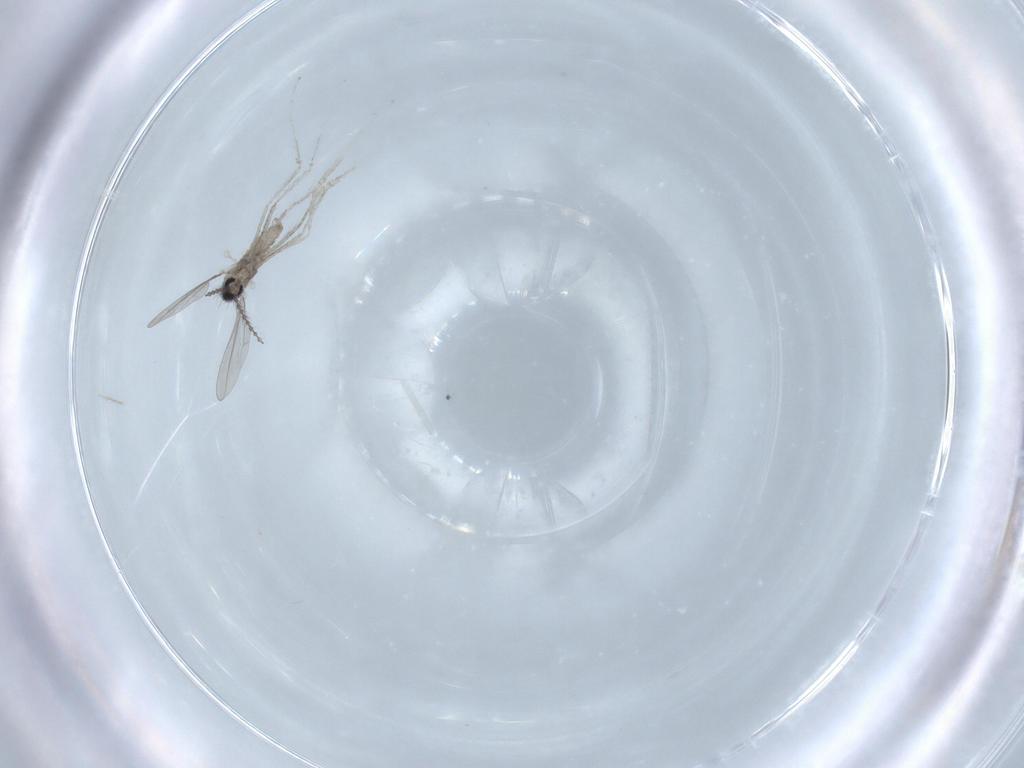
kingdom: Animalia
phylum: Arthropoda
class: Insecta
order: Diptera
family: Cecidomyiidae
